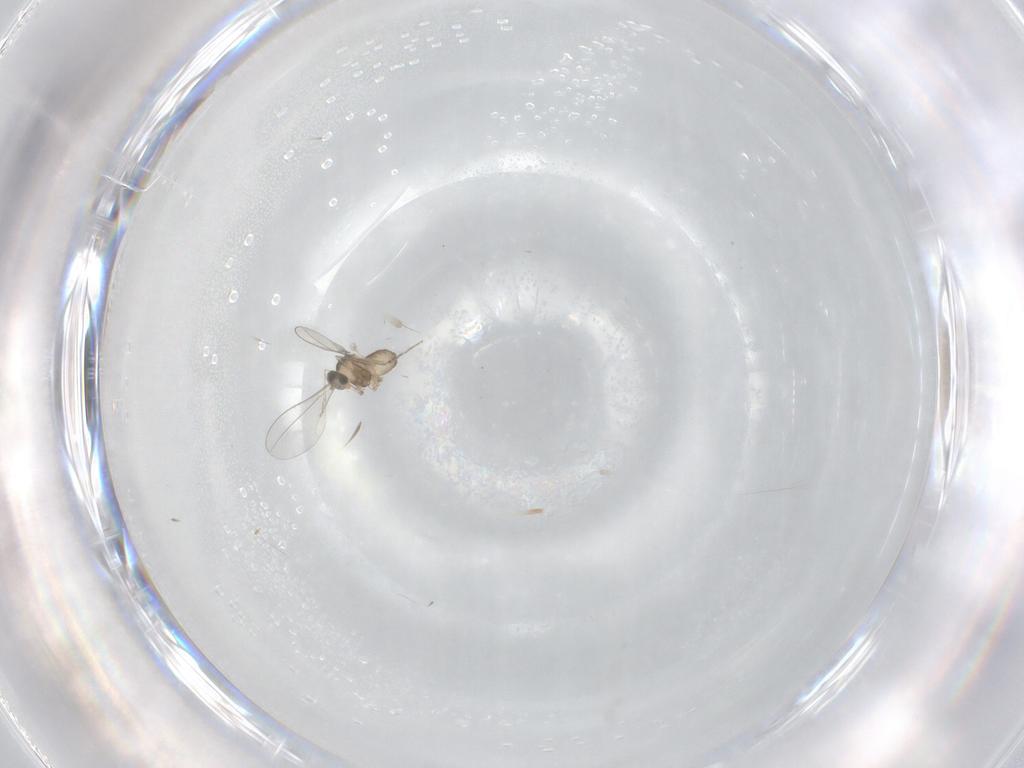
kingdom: Animalia
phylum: Arthropoda
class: Insecta
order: Diptera
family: Cecidomyiidae
